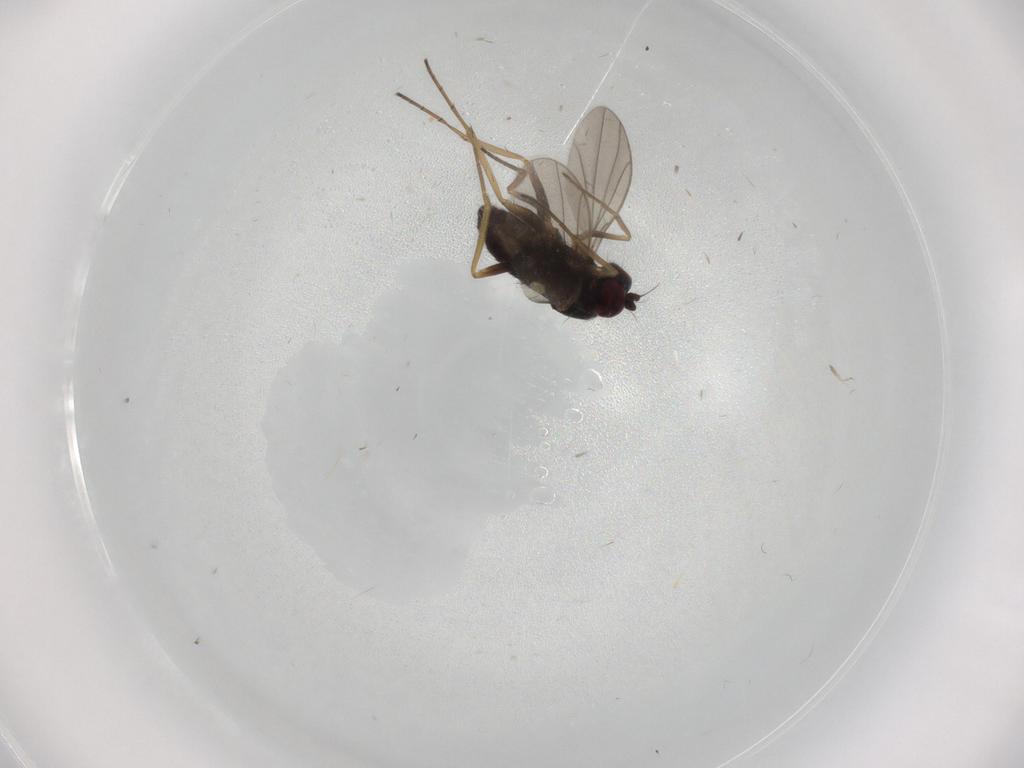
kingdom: Animalia
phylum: Arthropoda
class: Insecta
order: Diptera
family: Dolichopodidae
